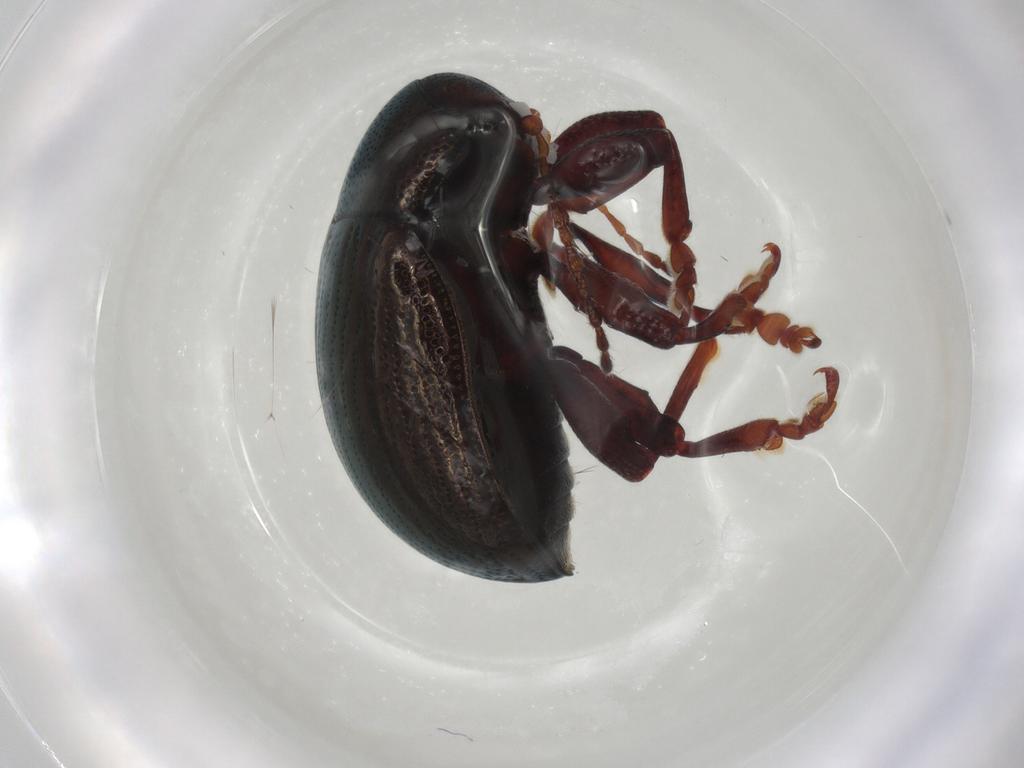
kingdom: Animalia
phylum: Arthropoda
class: Insecta
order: Coleoptera
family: Chrysomelidae
